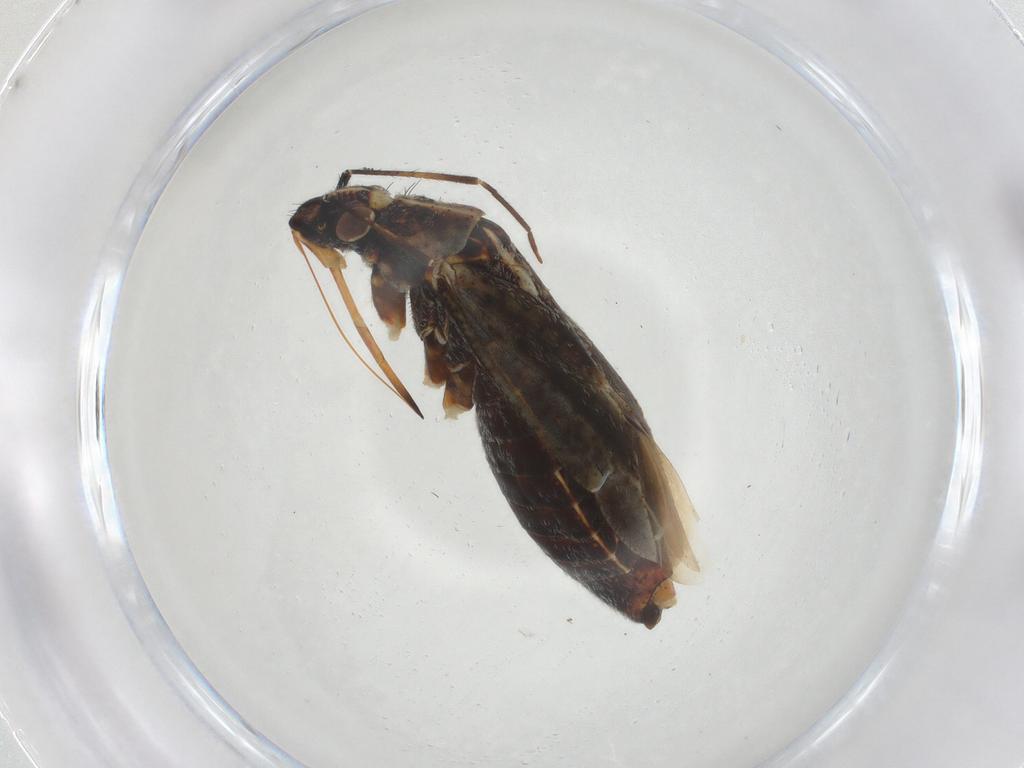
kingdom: Animalia
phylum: Arthropoda
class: Insecta
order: Hemiptera
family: Miridae
